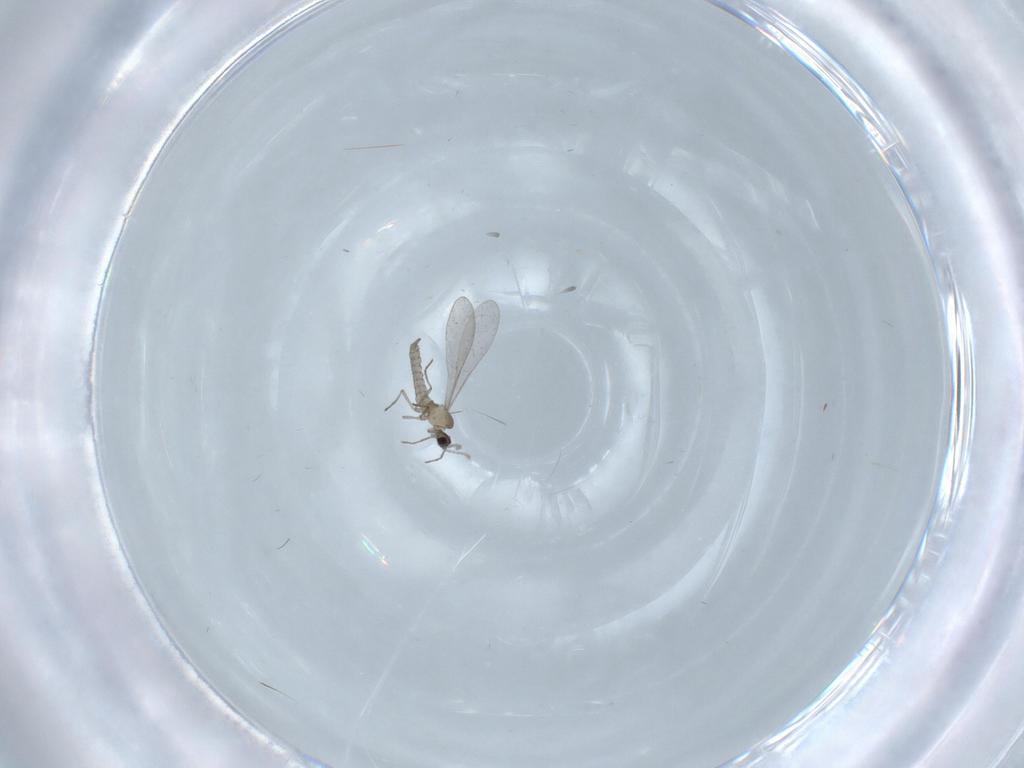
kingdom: Animalia
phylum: Arthropoda
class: Insecta
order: Diptera
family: Cecidomyiidae
